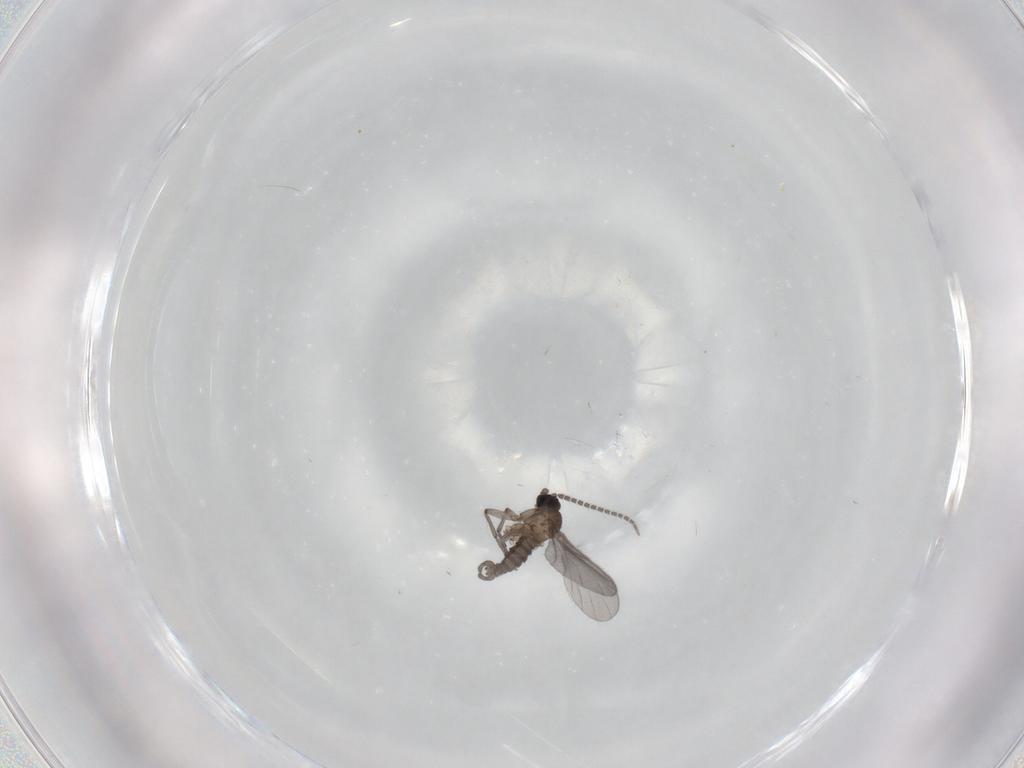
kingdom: Animalia
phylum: Arthropoda
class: Insecta
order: Diptera
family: Sciaridae
